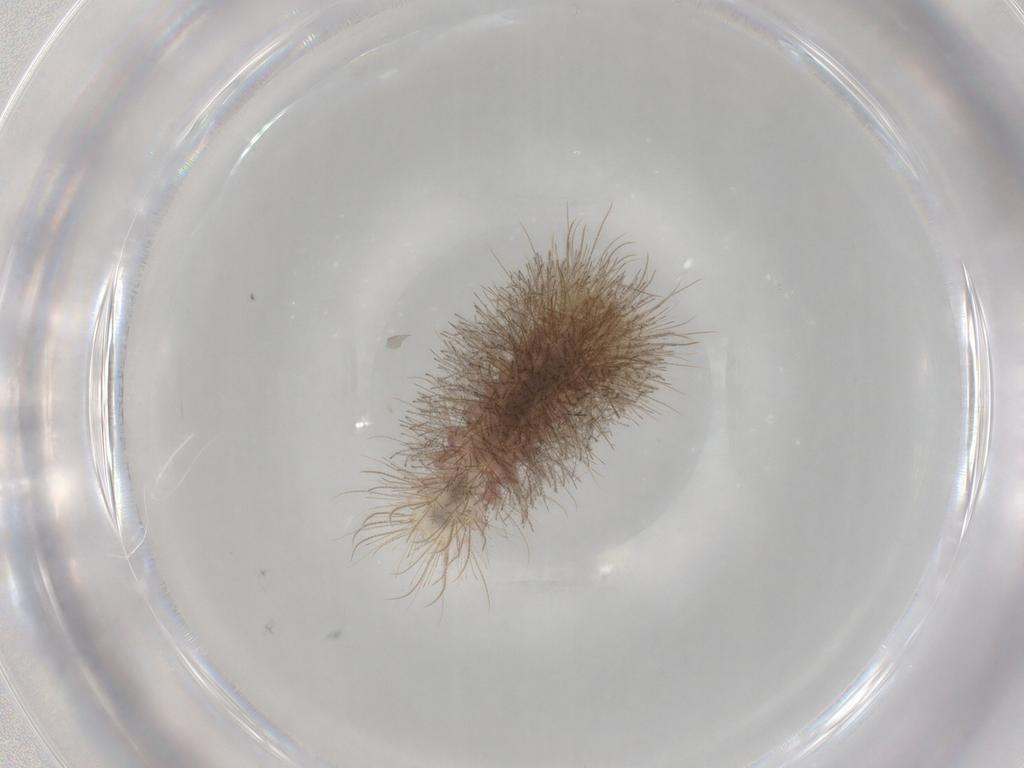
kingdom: Animalia
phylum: Arthropoda
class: Insecta
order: Lepidoptera
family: Erebidae
